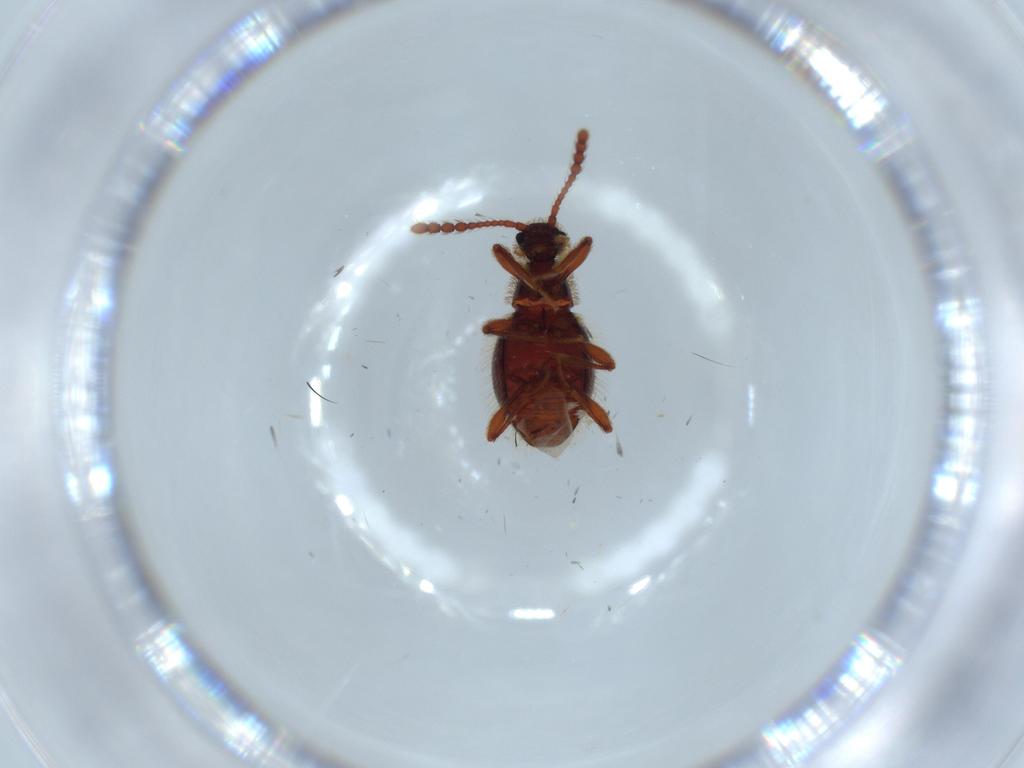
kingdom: Animalia
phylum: Arthropoda
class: Insecta
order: Coleoptera
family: Staphylinidae
